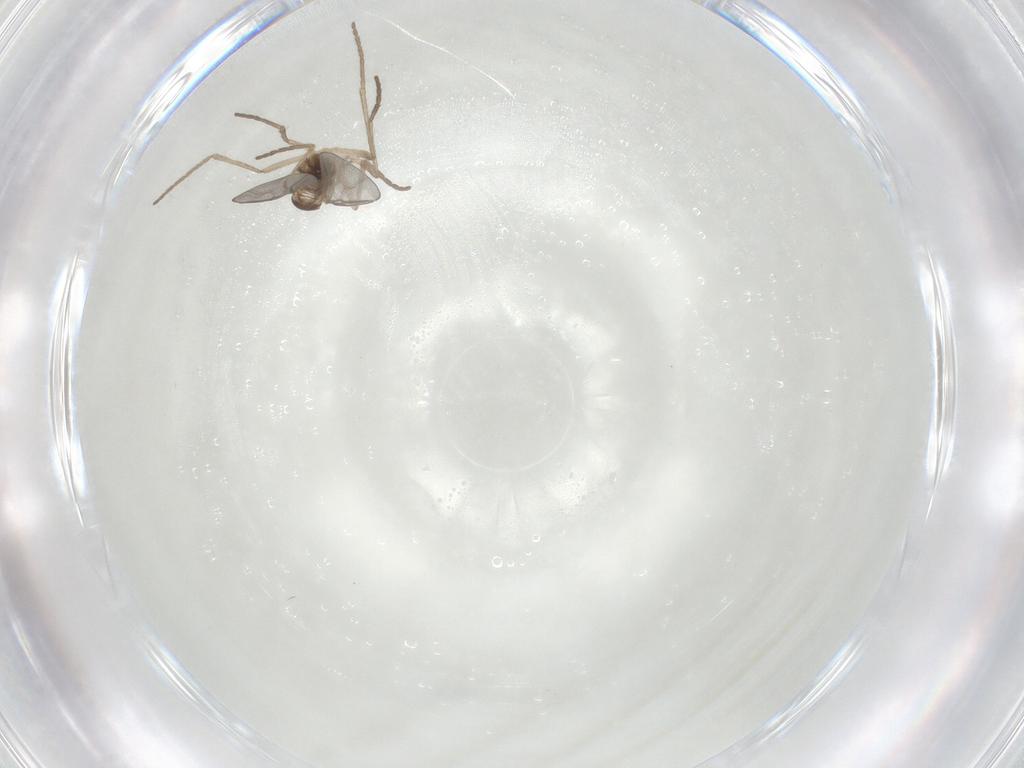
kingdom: Animalia
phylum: Arthropoda
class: Insecta
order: Diptera
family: Cecidomyiidae
